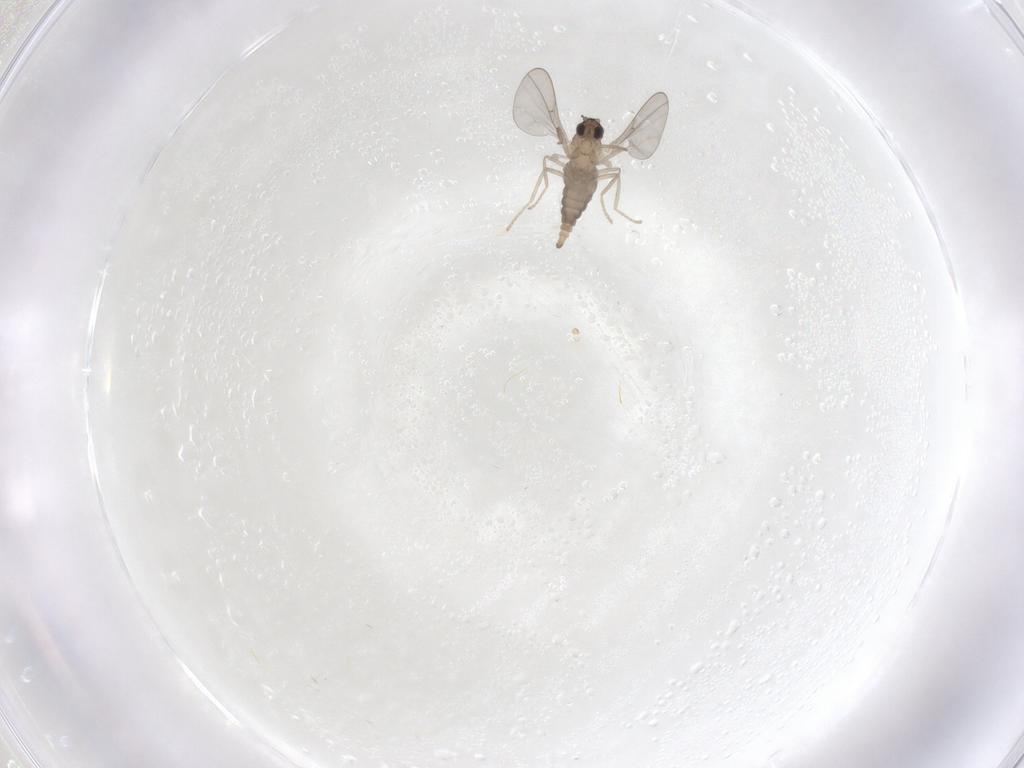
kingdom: Animalia
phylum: Arthropoda
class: Insecta
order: Diptera
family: Cecidomyiidae
